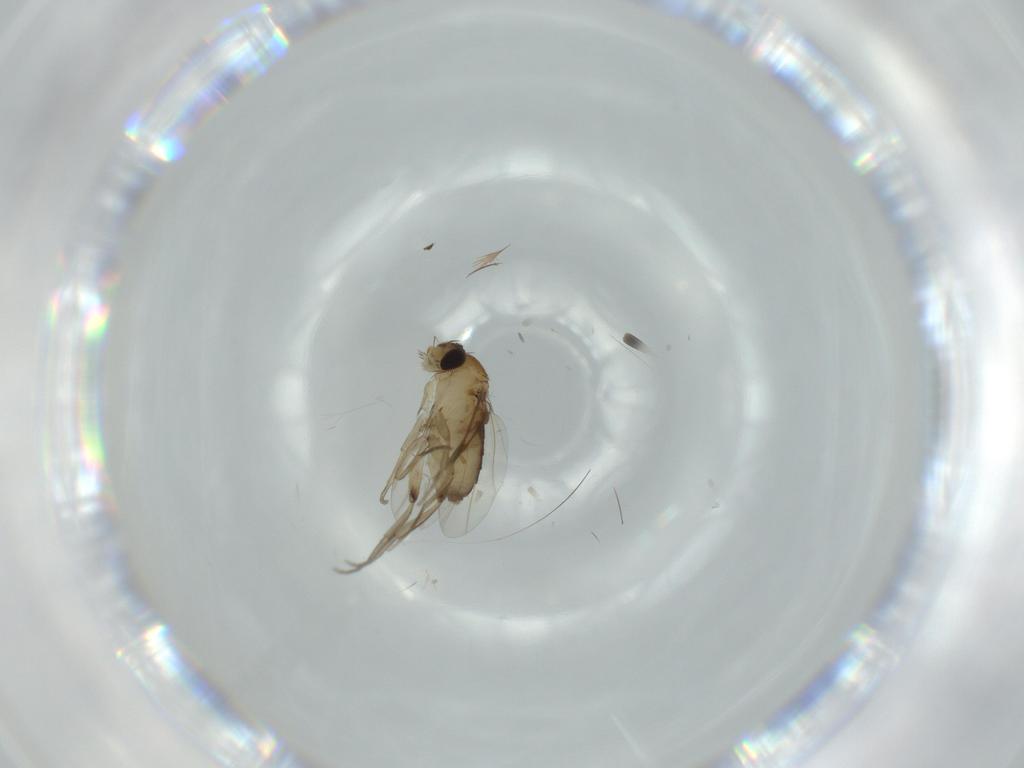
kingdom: Animalia
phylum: Arthropoda
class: Insecta
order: Diptera
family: Phoridae
